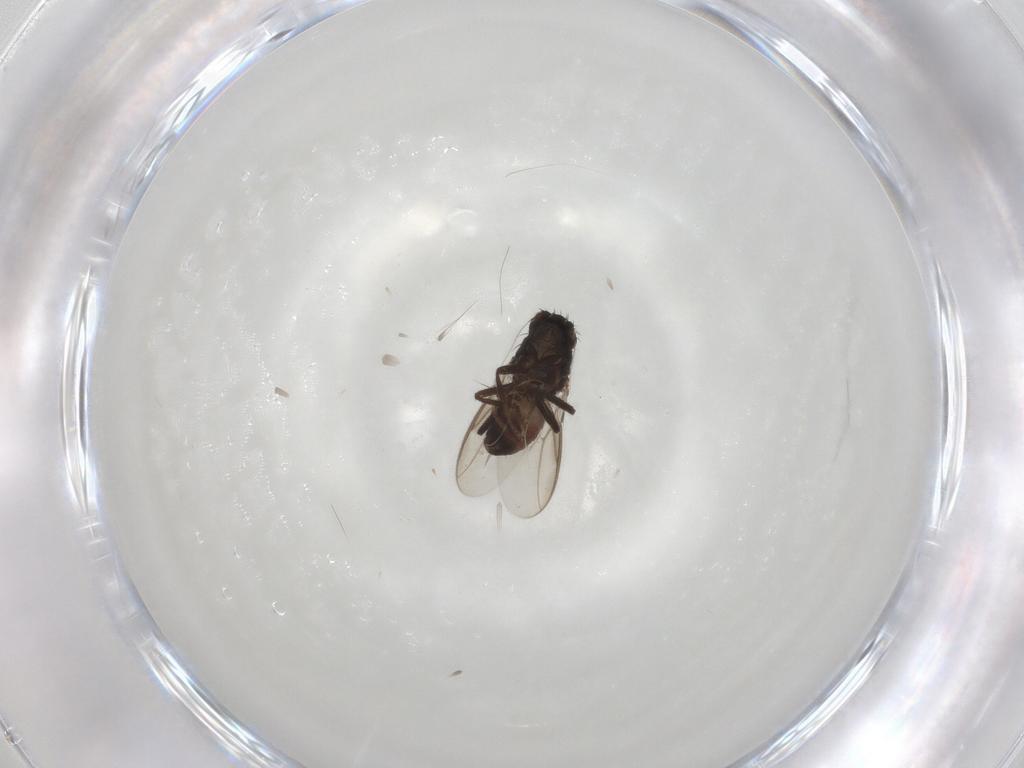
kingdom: Animalia
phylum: Arthropoda
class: Insecta
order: Diptera
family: Sphaeroceridae
